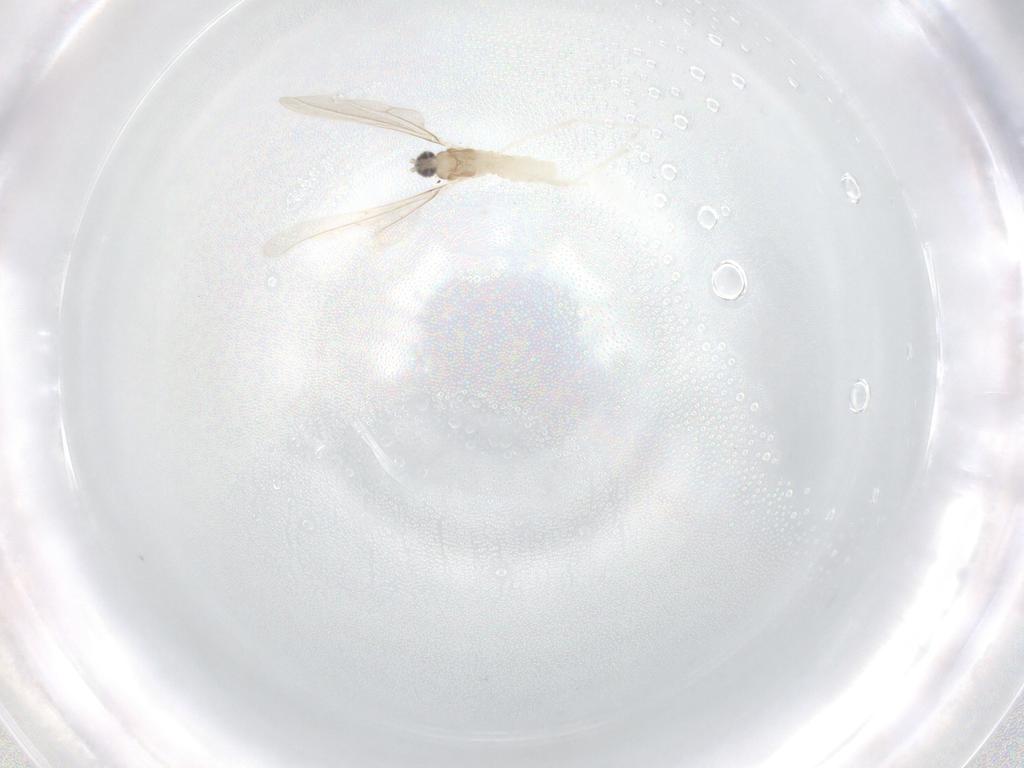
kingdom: Animalia
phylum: Arthropoda
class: Insecta
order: Diptera
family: Cecidomyiidae
